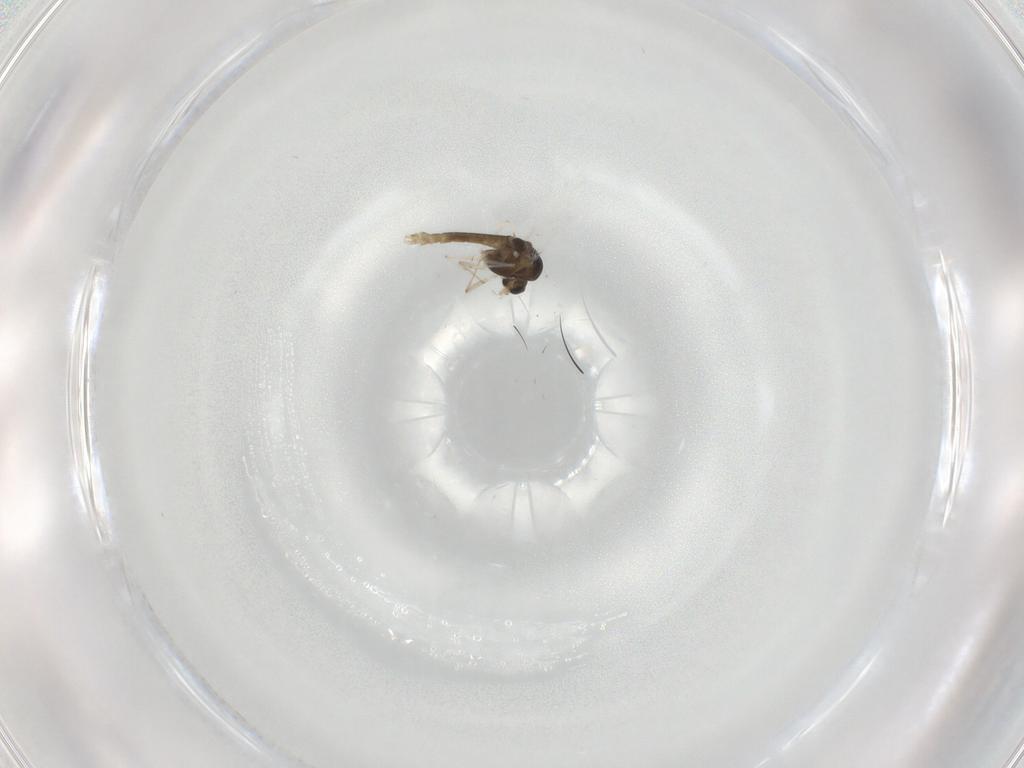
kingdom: Animalia
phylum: Arthropoda
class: Insecta
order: Diptera
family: Chironomidae
